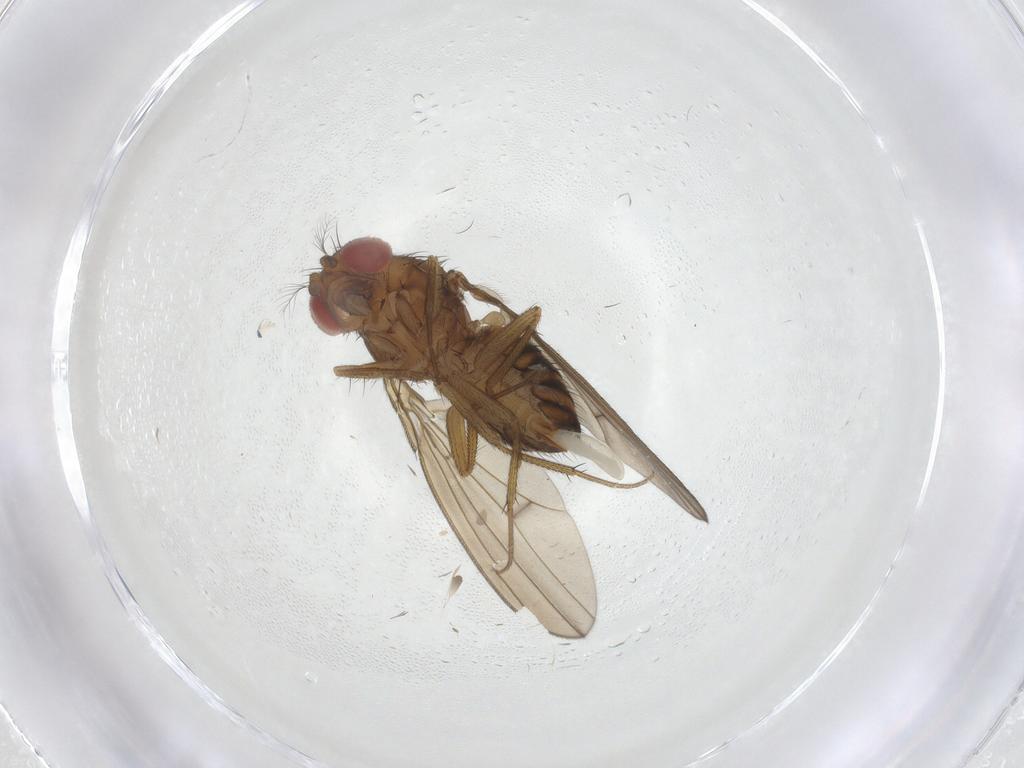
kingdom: Animalia
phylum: Arthropoda
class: Insecta
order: Diptera
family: Drosophilidae
